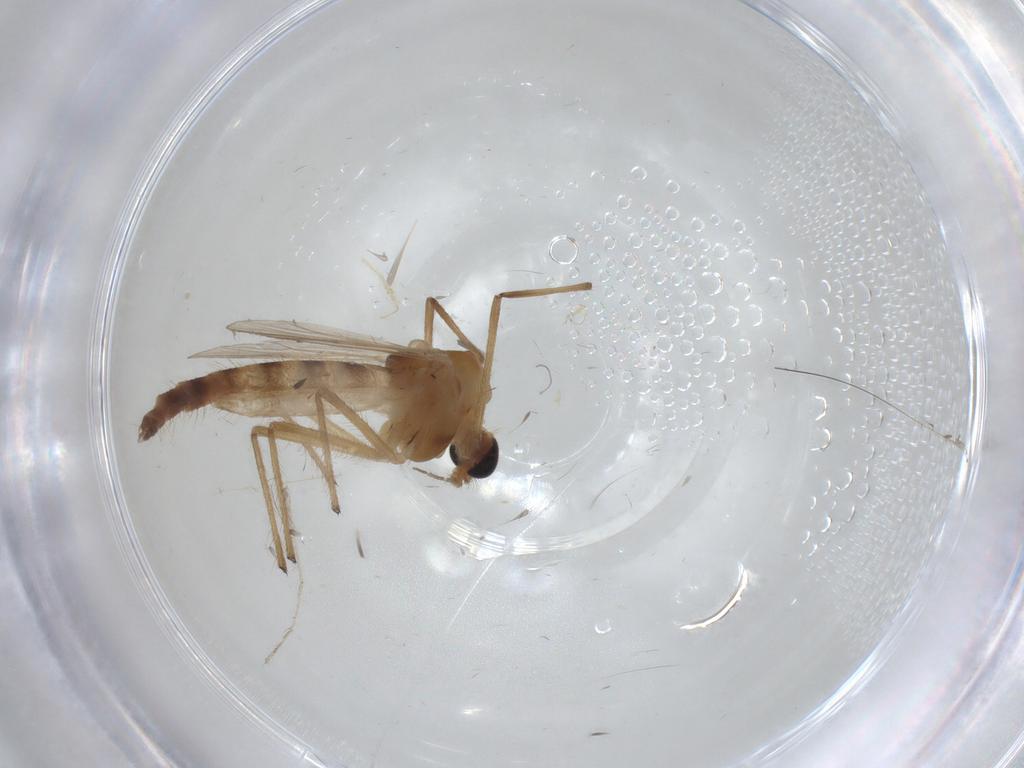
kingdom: Animalia
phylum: Arthropoda
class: Insecta
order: Diptera
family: Chironomidae
